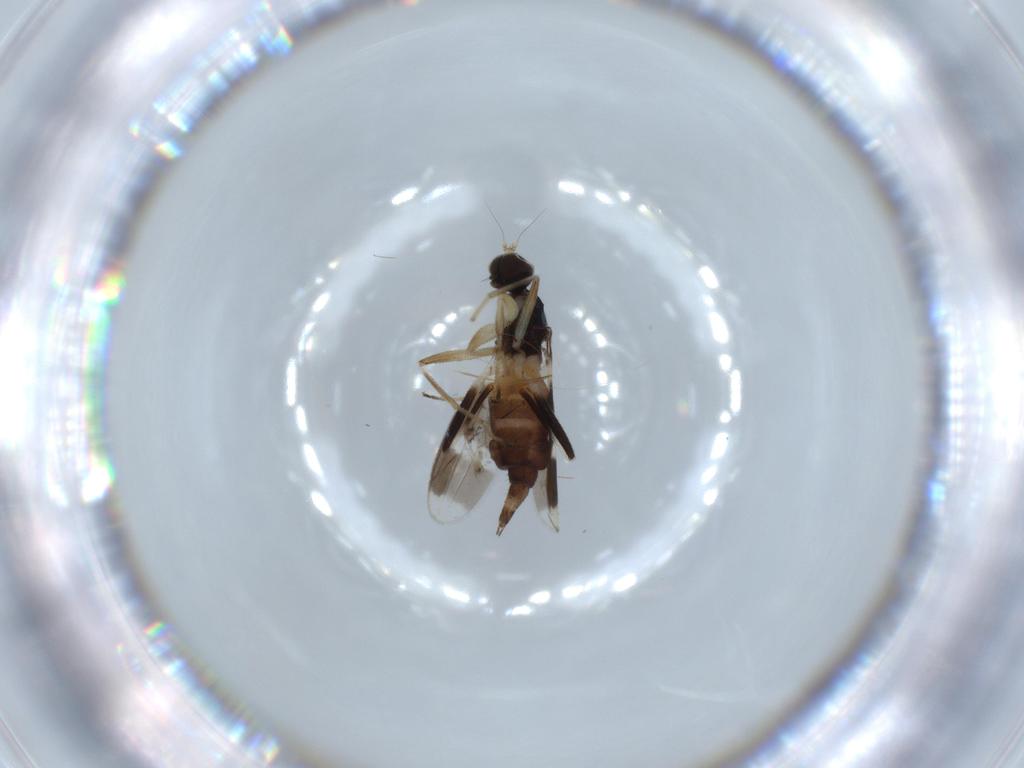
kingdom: Animalia
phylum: Arthropoda
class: Insecta
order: Diptera
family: Hybotidae
